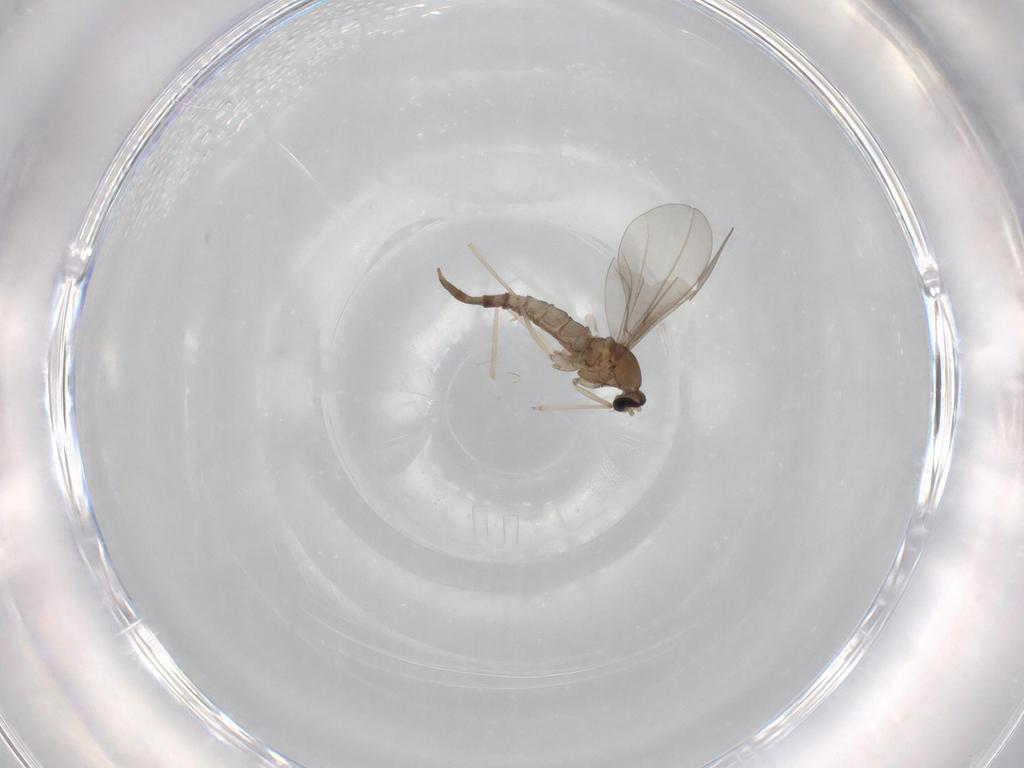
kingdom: Animalia
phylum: Arthropoda
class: Insecta
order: Diptera
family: Cecidomyiidae
